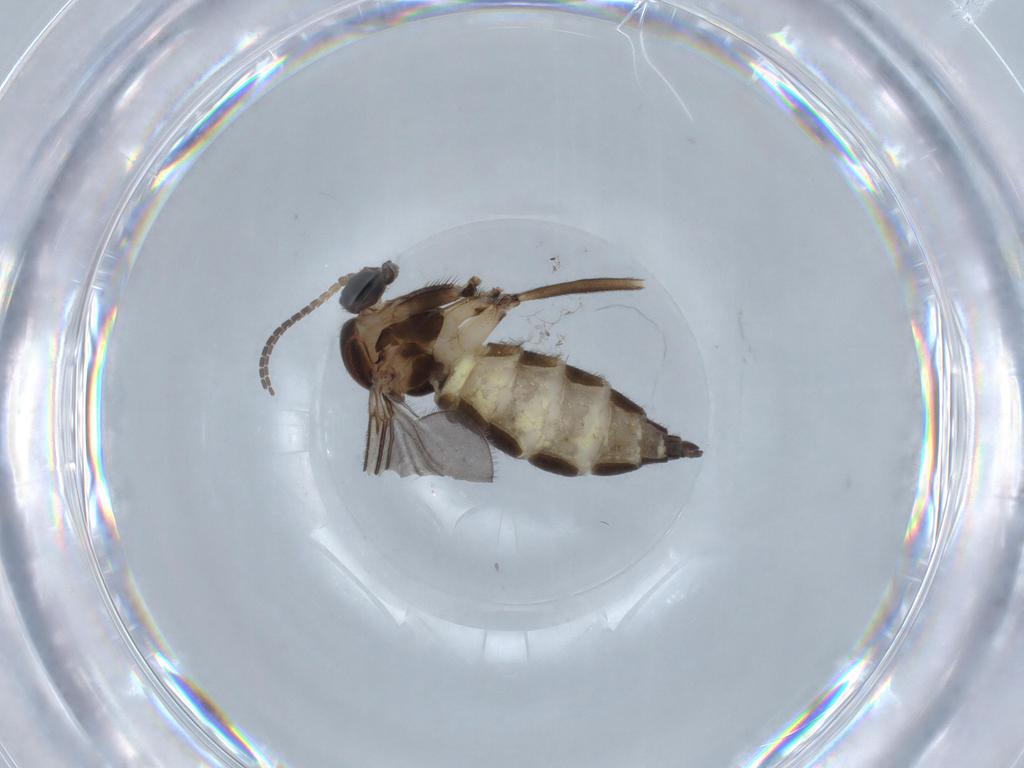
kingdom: Animalia
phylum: Arthropoda
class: Insecta
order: Diptera
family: Sciaridae
